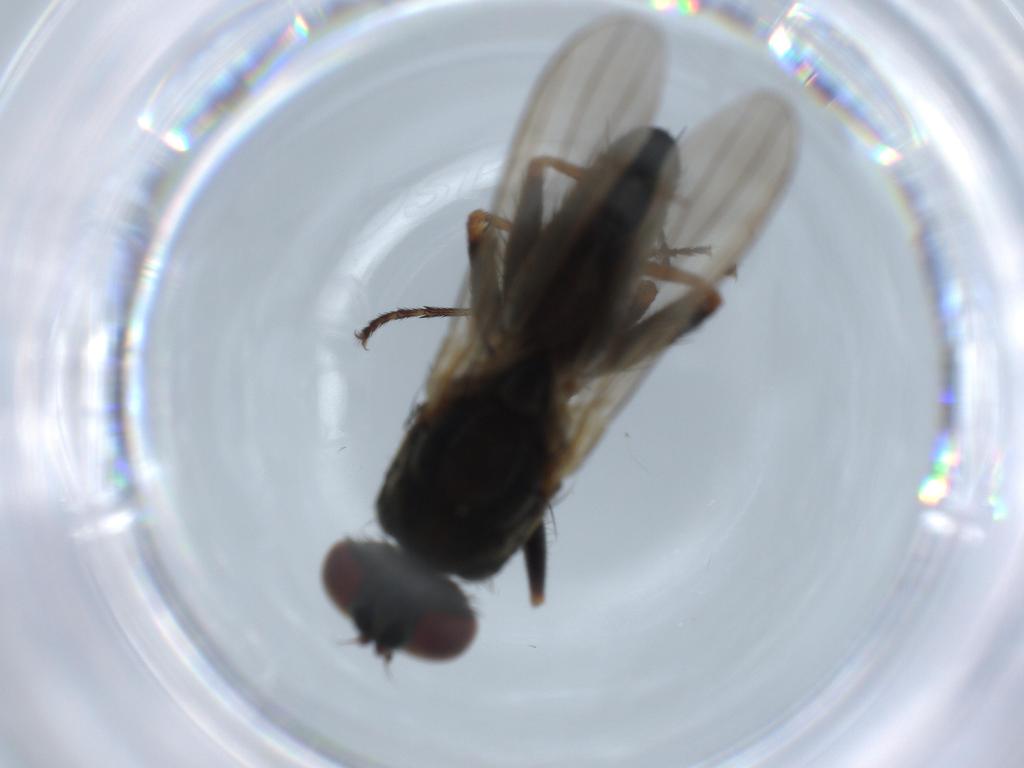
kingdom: Animalia
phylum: Arthropoda
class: Insecta
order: Diptera
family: Muscidae
